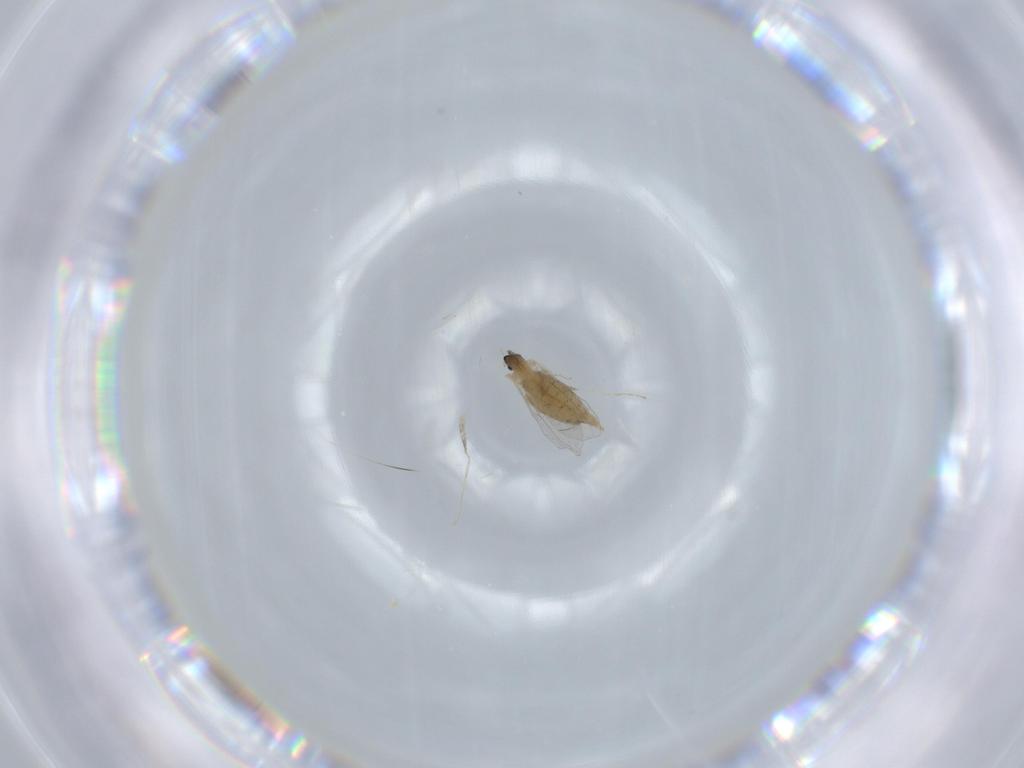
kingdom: Animalia
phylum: Arthropoda
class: Insecta
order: Diptera
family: Cecidomyiidae
